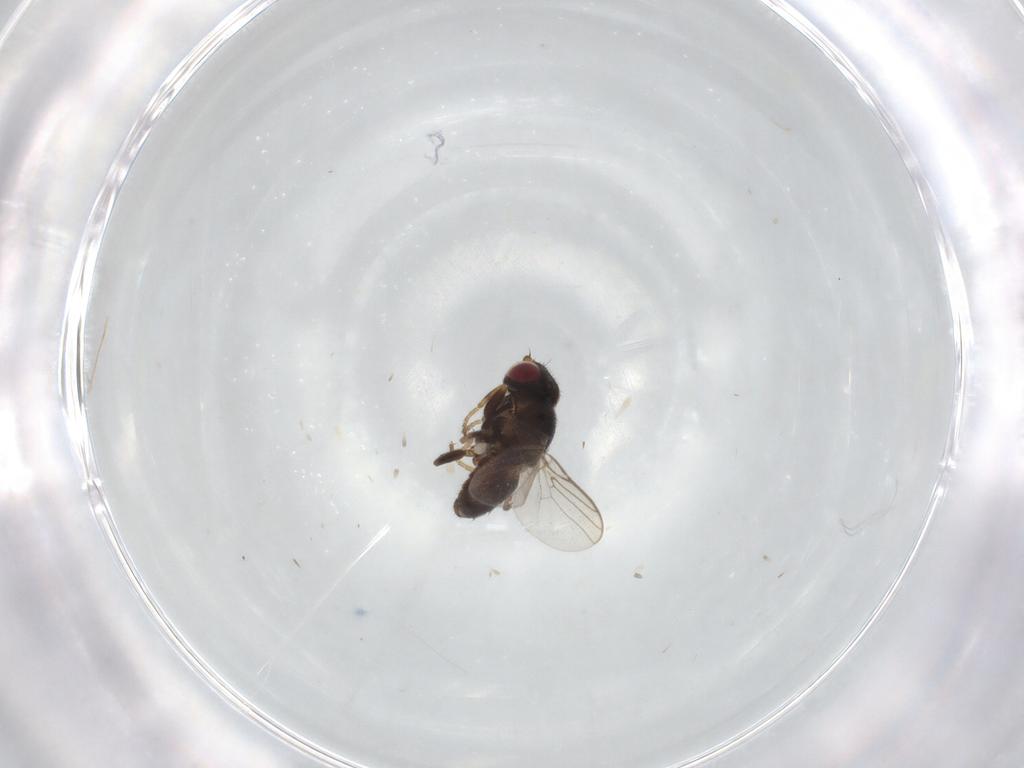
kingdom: Animalia
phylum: Arthropoda
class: Insecta
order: Diptera
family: Chloropidae
